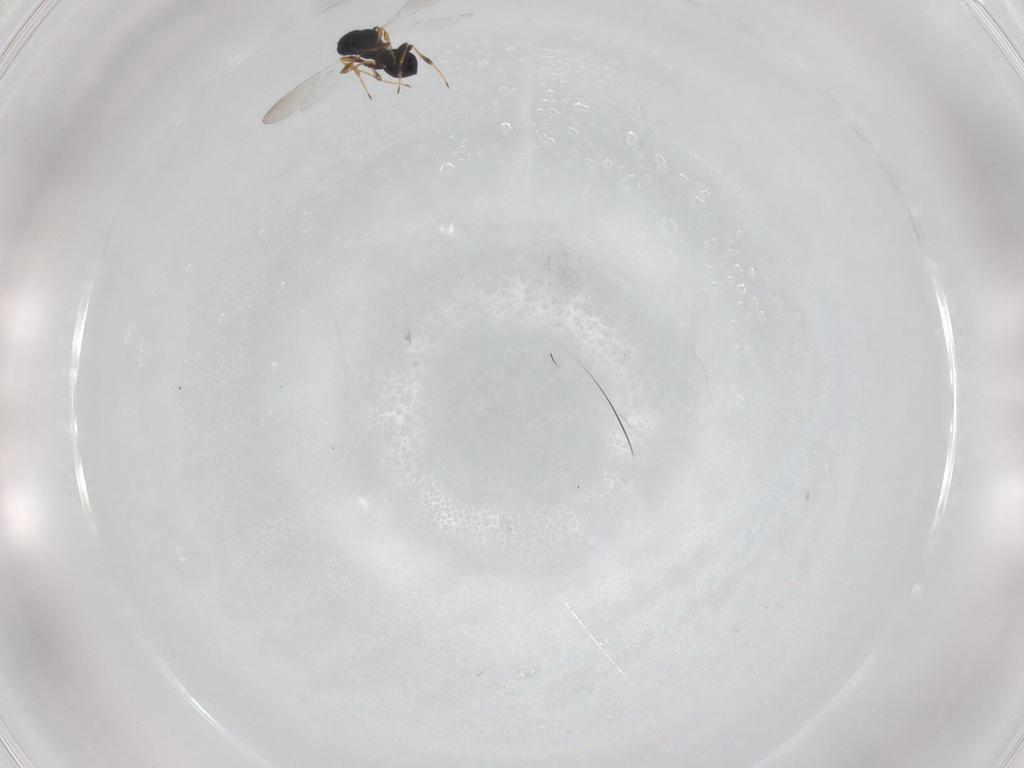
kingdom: Animalia
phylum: Arthropoda
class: Insecta
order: Hymenoptera
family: Platygastridae
